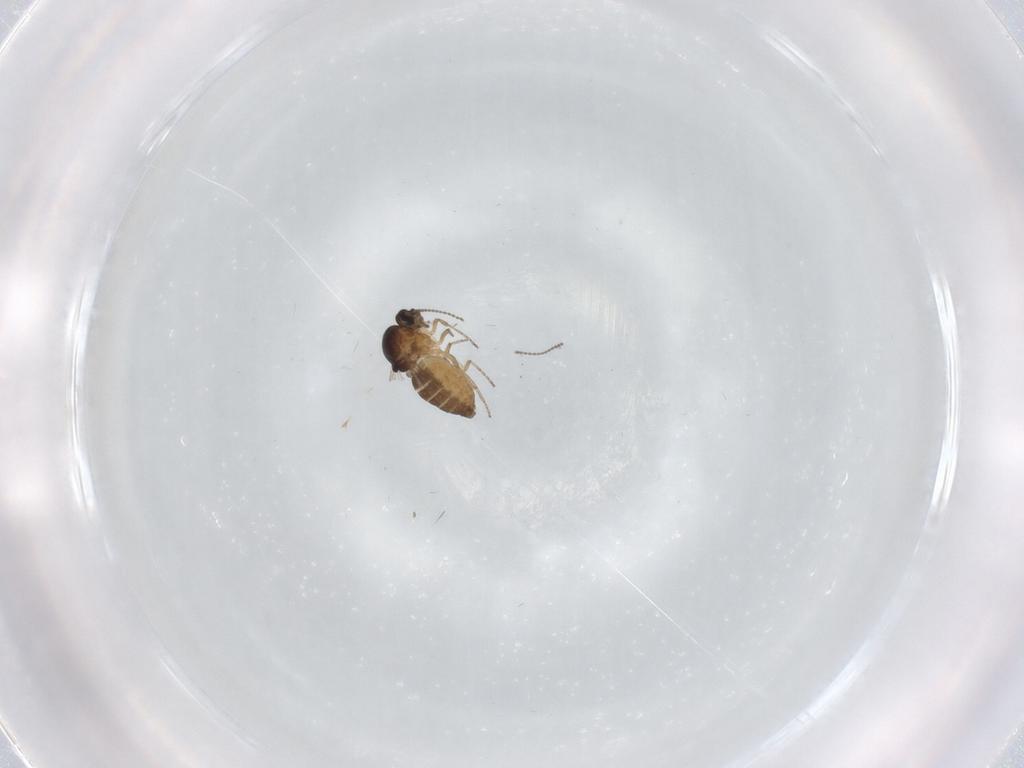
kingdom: Animalia
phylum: Arthropoda
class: Insecta
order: Diptera
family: Ceratopogonidae
